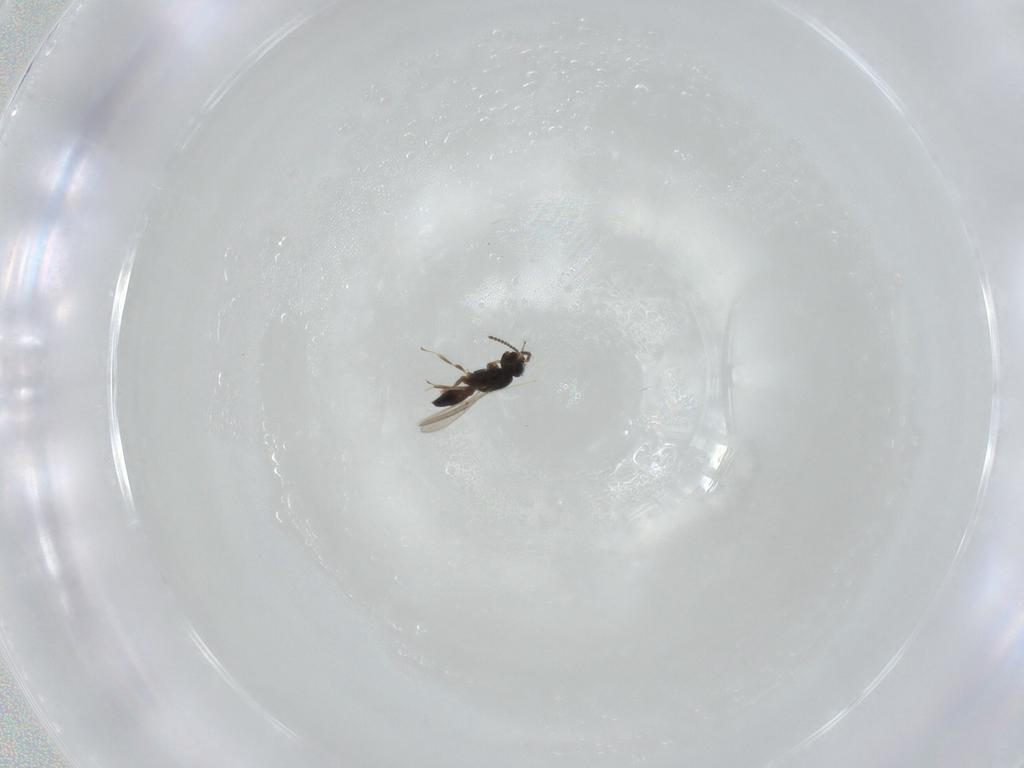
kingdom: Animalia
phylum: Arthropoda
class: Insecta
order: Hymenoptera
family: Scelionidae
